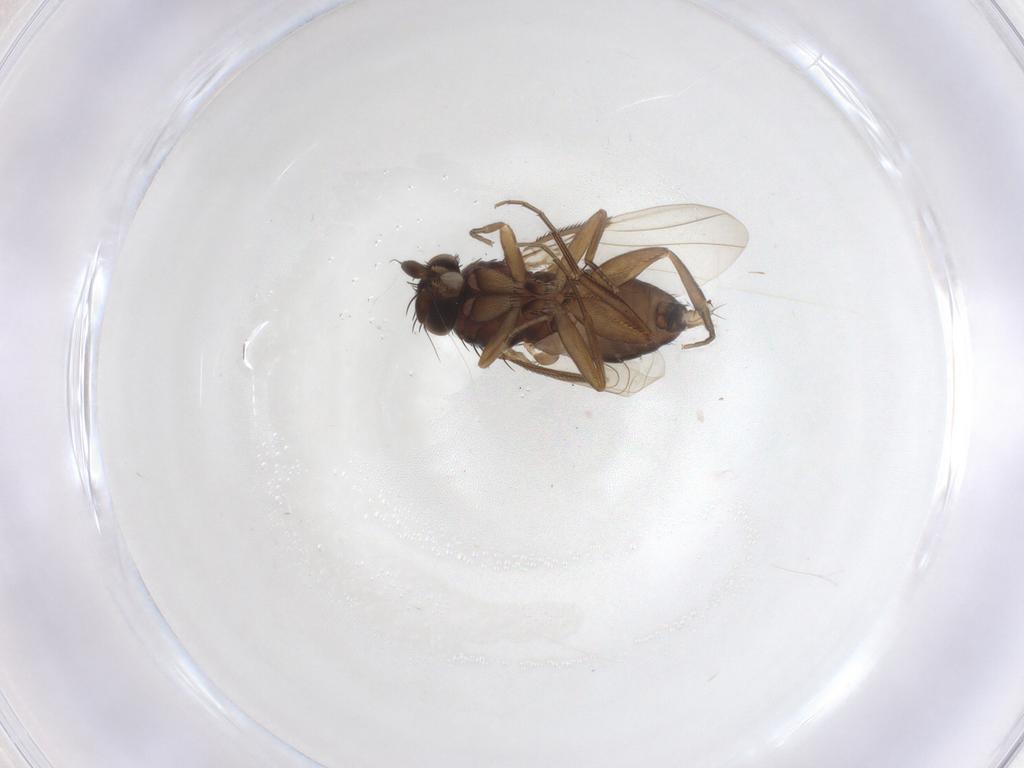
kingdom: Animalia
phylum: Arthropoda
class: Insecta
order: Diptera
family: Phoridae
